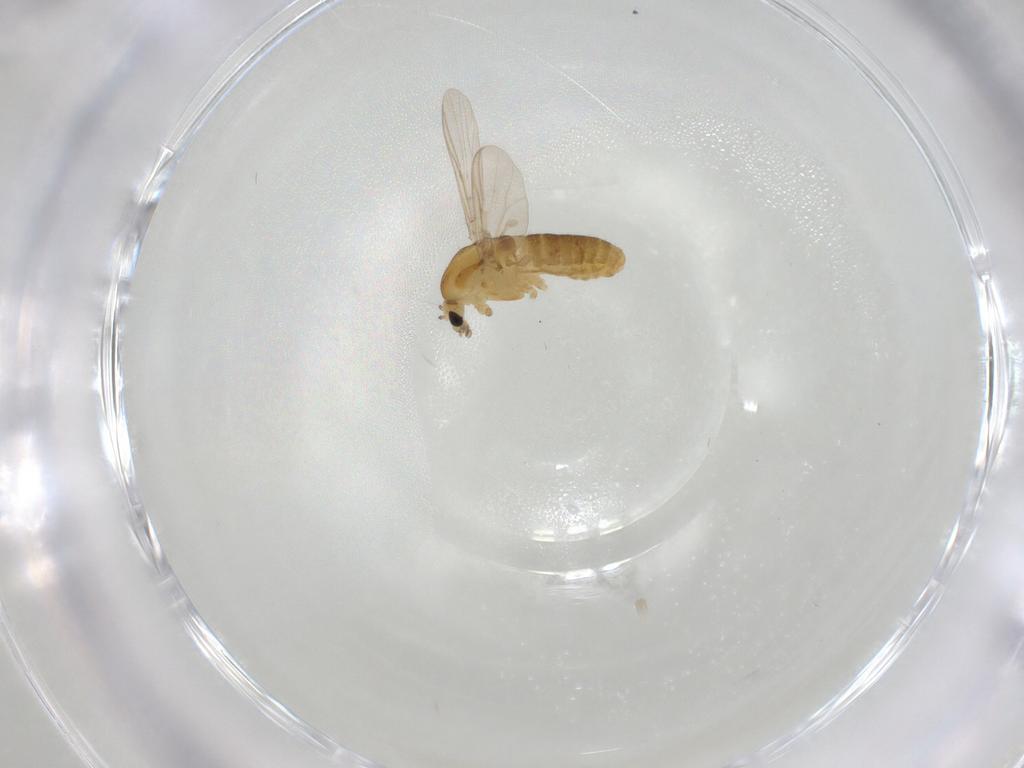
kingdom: Animalia
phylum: Arthropoda
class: Insecta
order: Diptera
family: Chironomidae
